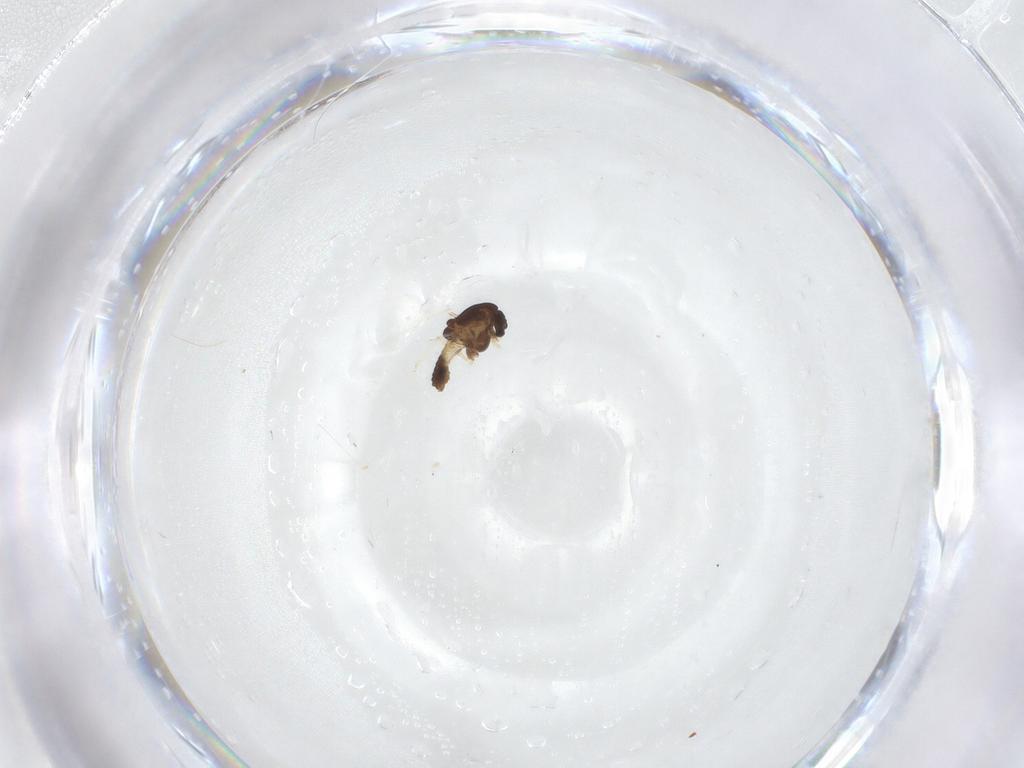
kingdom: Animalia
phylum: Arthropoda
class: Insecta
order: Diptera
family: Chironomidae
